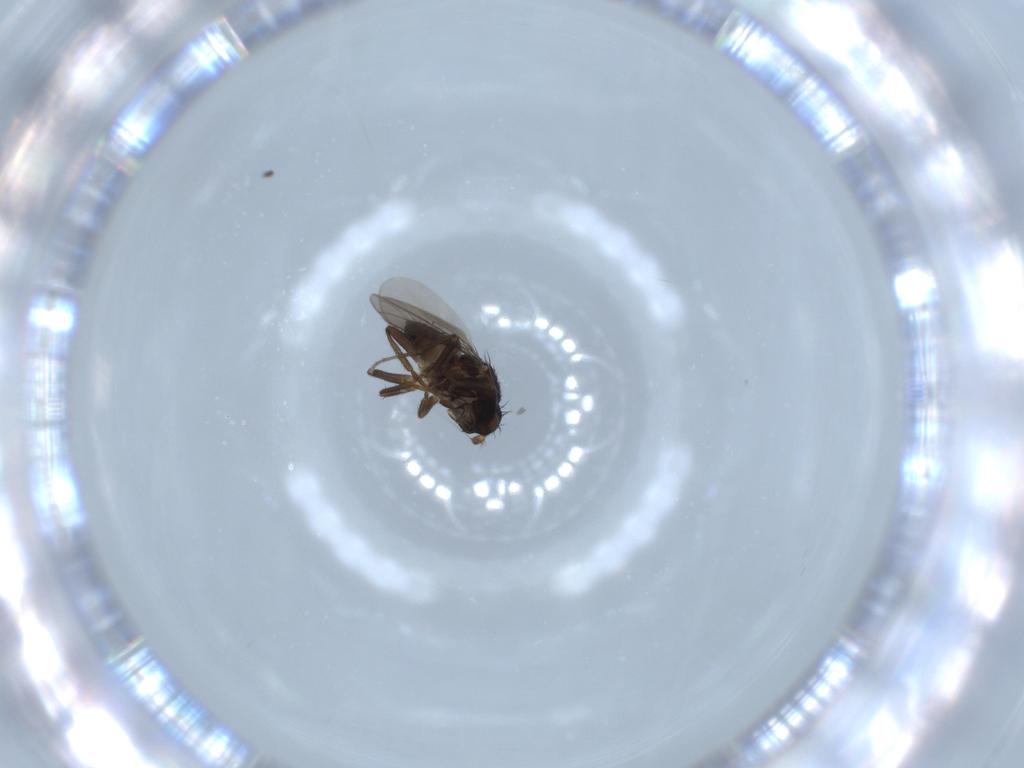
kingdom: Animalia
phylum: Arthropoda
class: Insecta
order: Diptera
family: Sphaeroceridae
